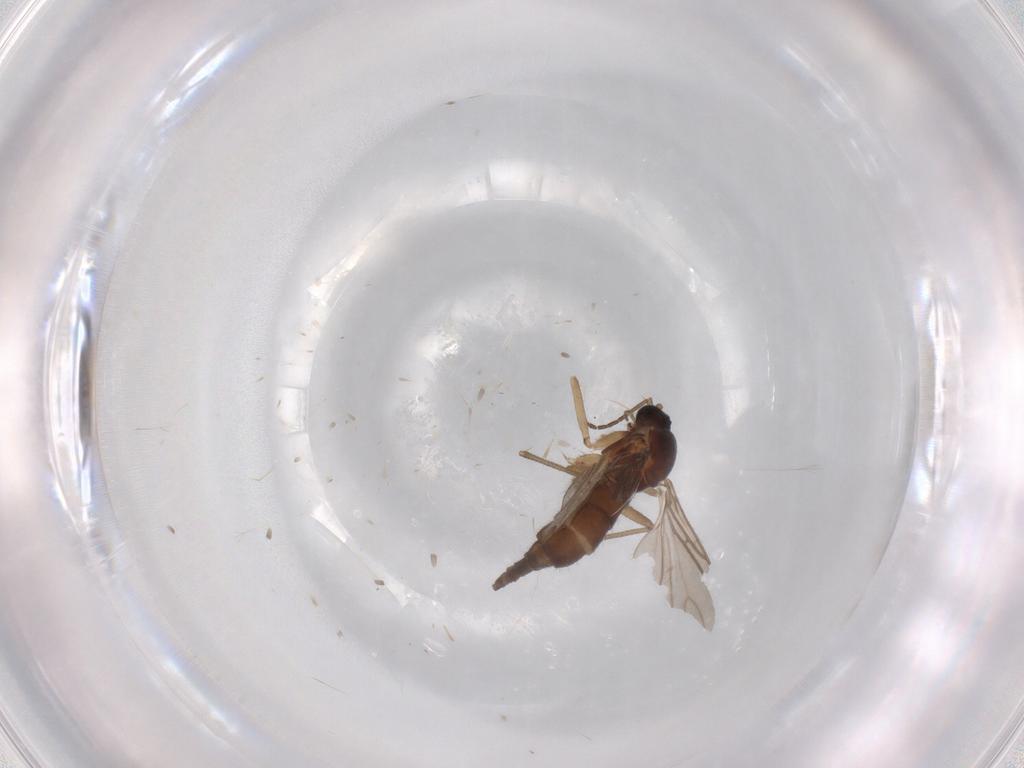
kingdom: Animalia
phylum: Arthropoda
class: Insecta
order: Diptera
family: Sciaridae
